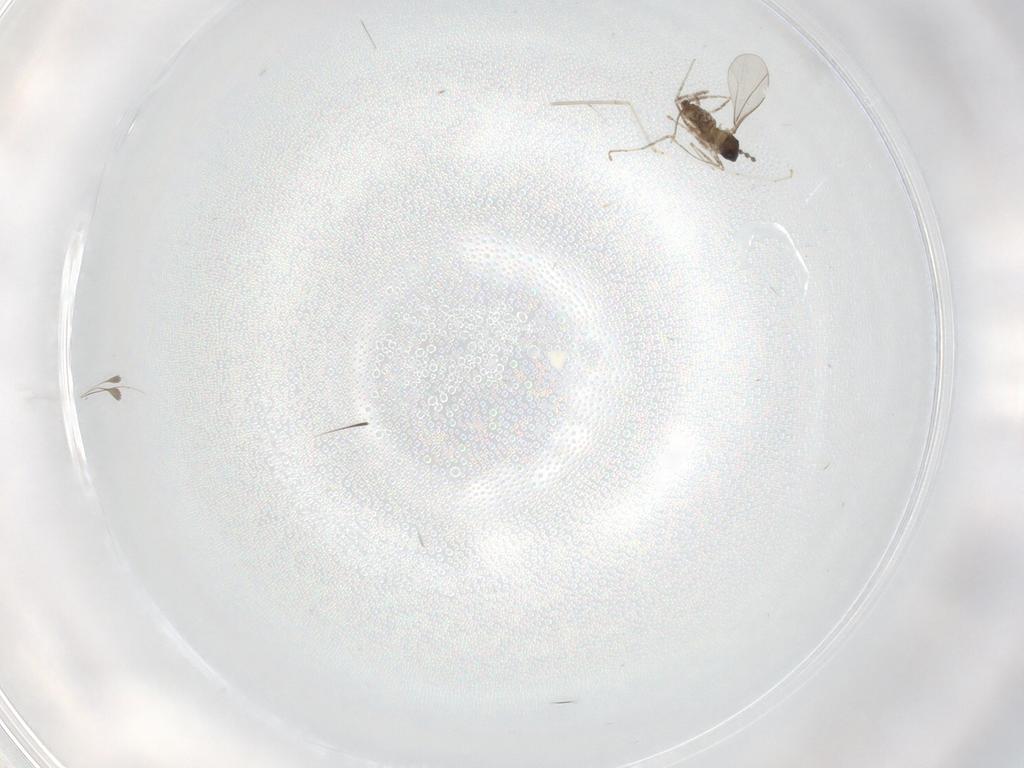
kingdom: Animalia
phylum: Arthropoda
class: Insecta
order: Diptera
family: Cecidomyiidae
